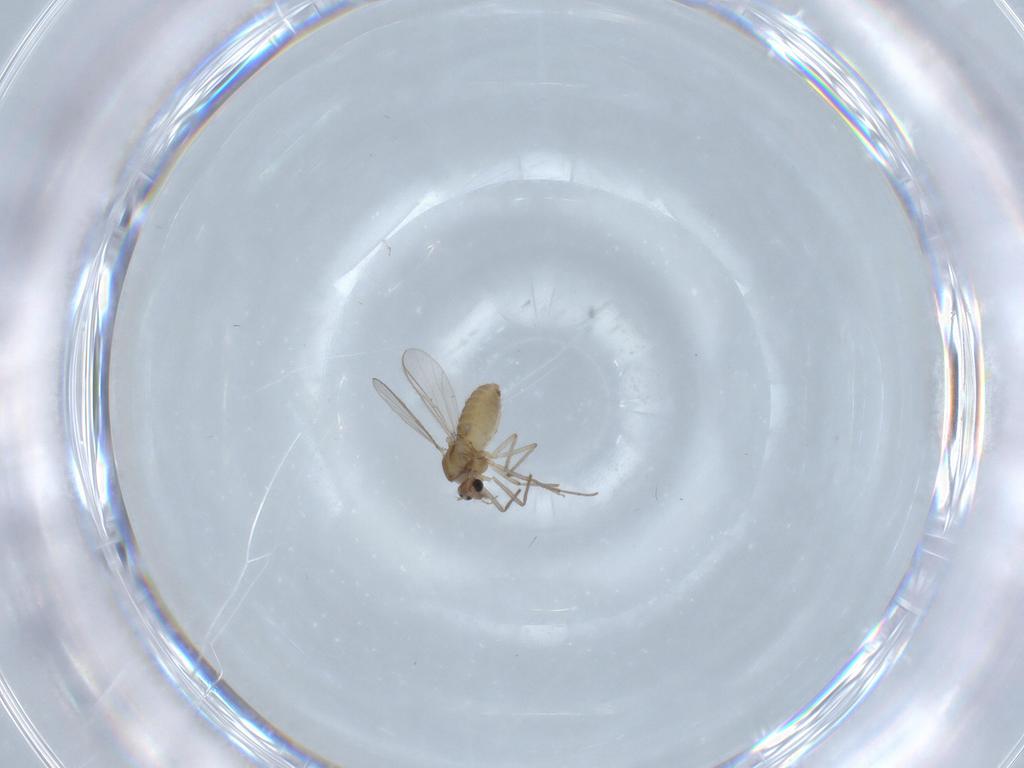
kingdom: Animalia
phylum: Arthropoda
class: Insecta
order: Diptera
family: Chironomidae
